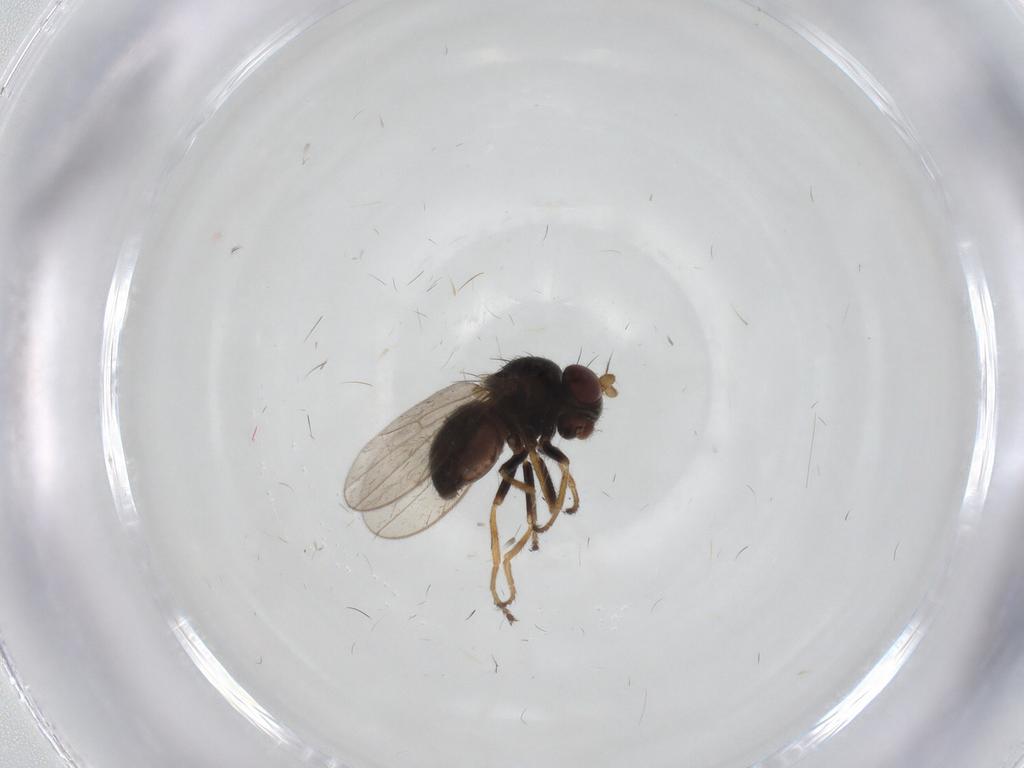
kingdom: Animalia
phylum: Arthropoda
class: Insecta
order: Diptera
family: Ephydridae
